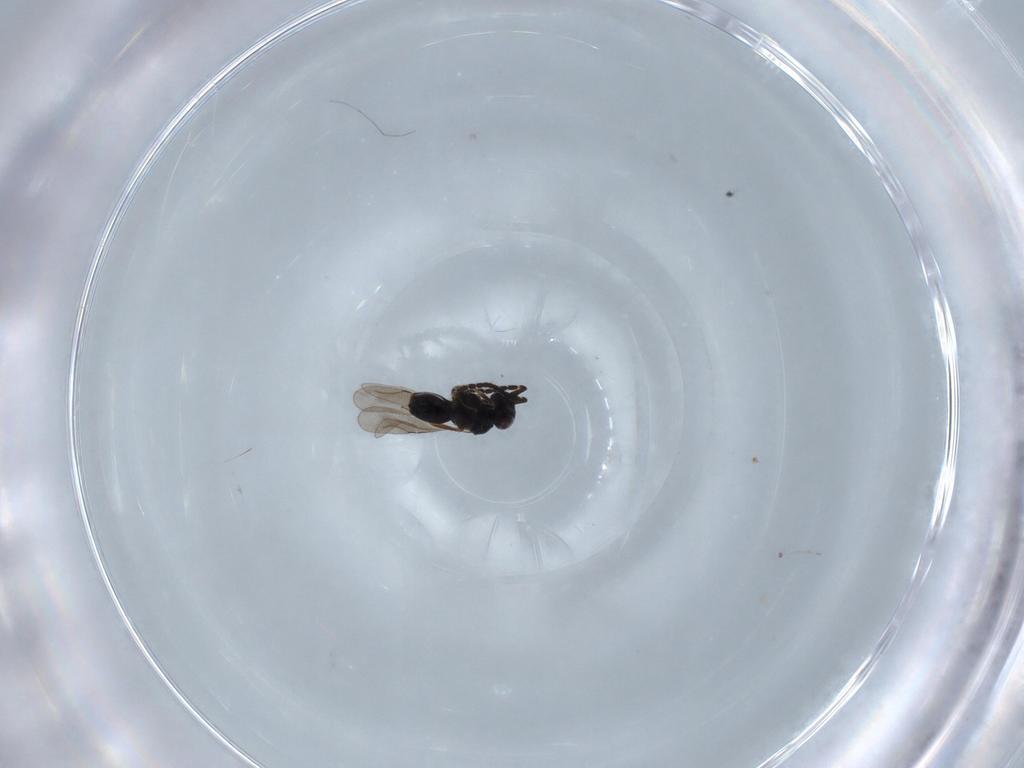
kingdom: Animalia
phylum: Arthropoda
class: Insecta
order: Hymenoptera
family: Ceraphronidae
